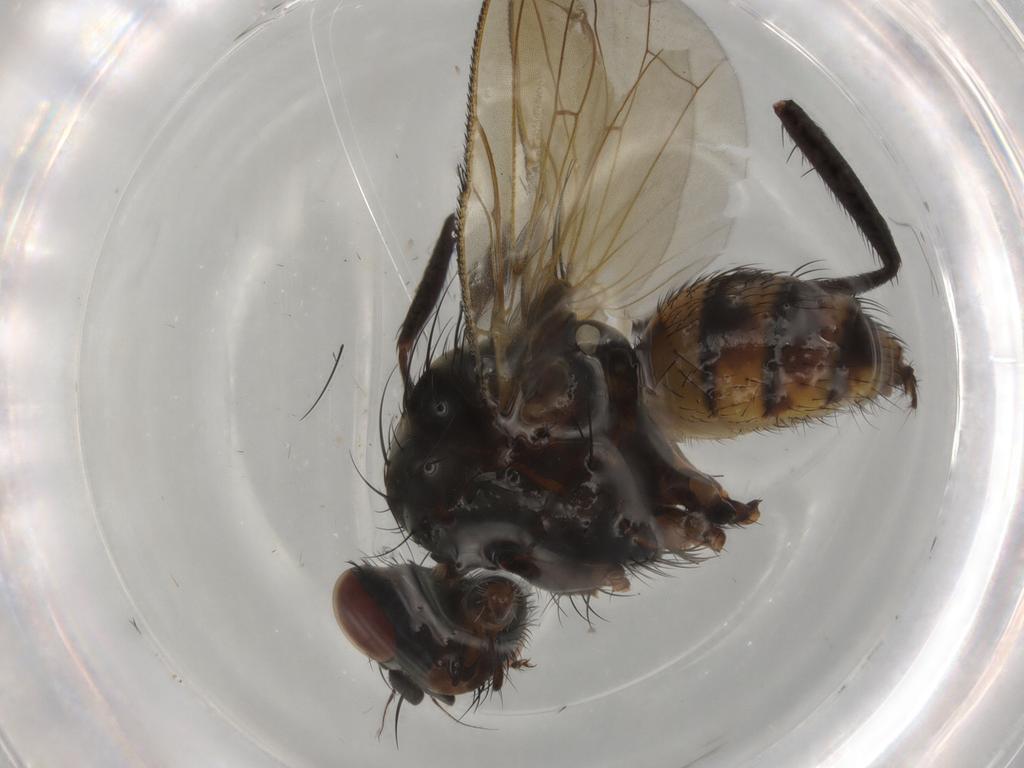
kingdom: Animalia
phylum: Arthropoda
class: Insecta
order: Diptera
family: Anthomyiidae
